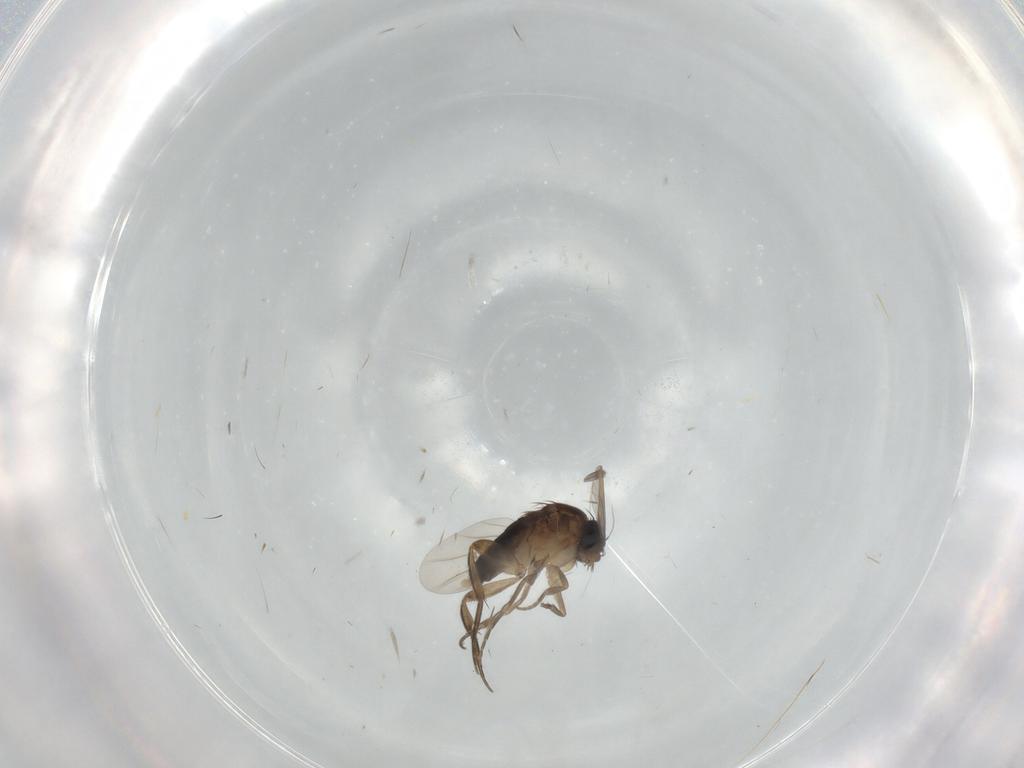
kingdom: Animalia
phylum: Arthropoda
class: Insecta
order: Diptera
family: Phoridae
